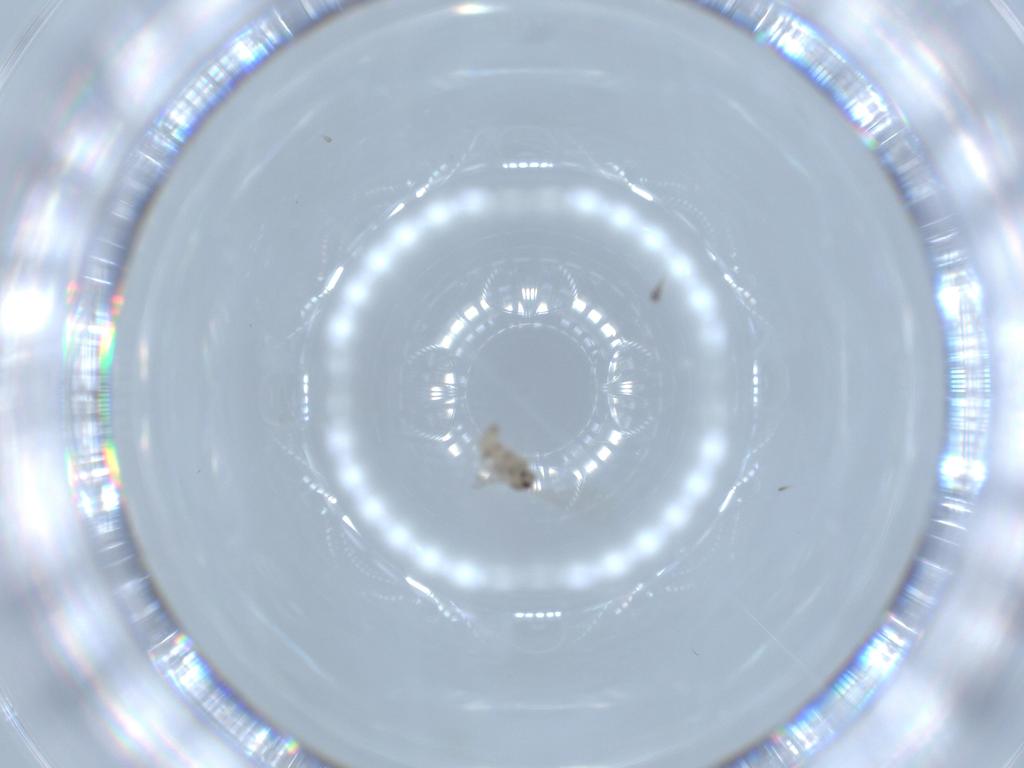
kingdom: Animalia
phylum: Arthropoda
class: Insecta
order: Diptera
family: Cecidomyiidae
